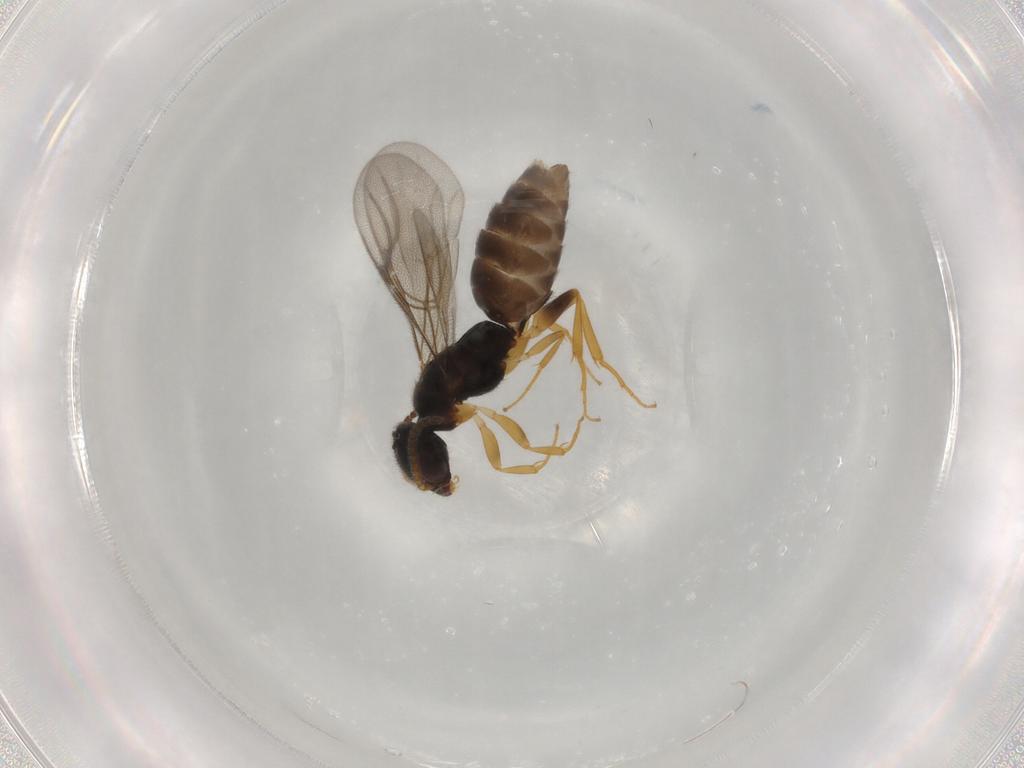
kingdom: Animalia
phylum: Arthropoda
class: Insecta
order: Hymenoptera
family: Bethylidae
